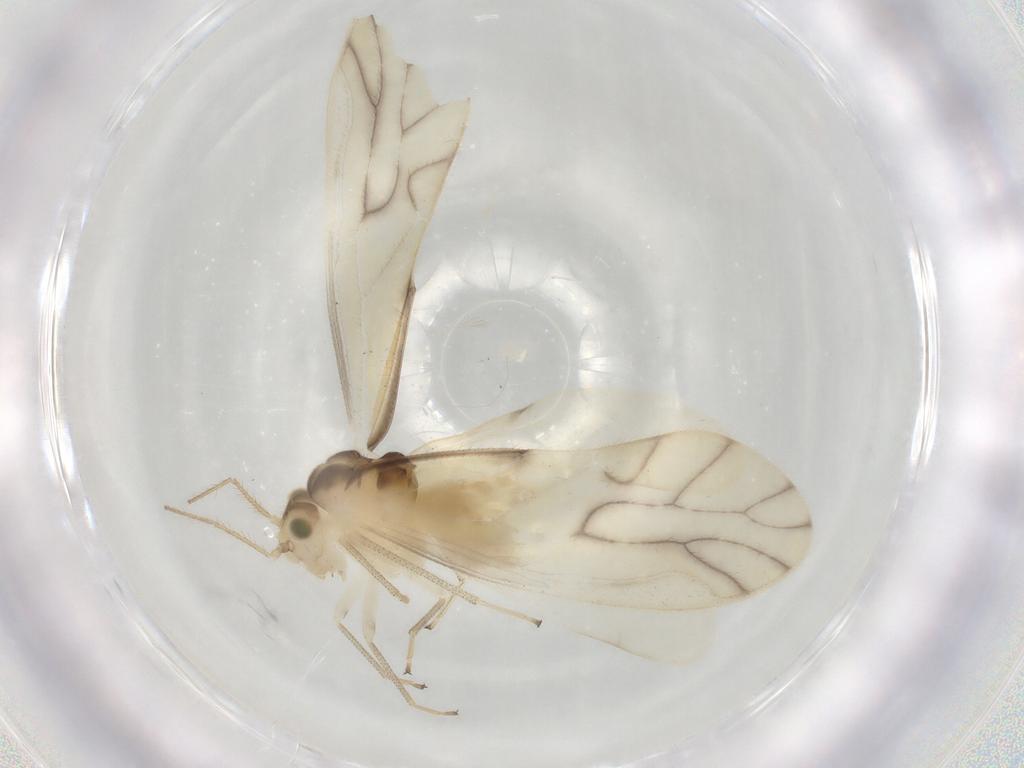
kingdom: Animalia
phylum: Arthropoda
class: Insecta
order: Psocodea
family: Caeciliusidae
